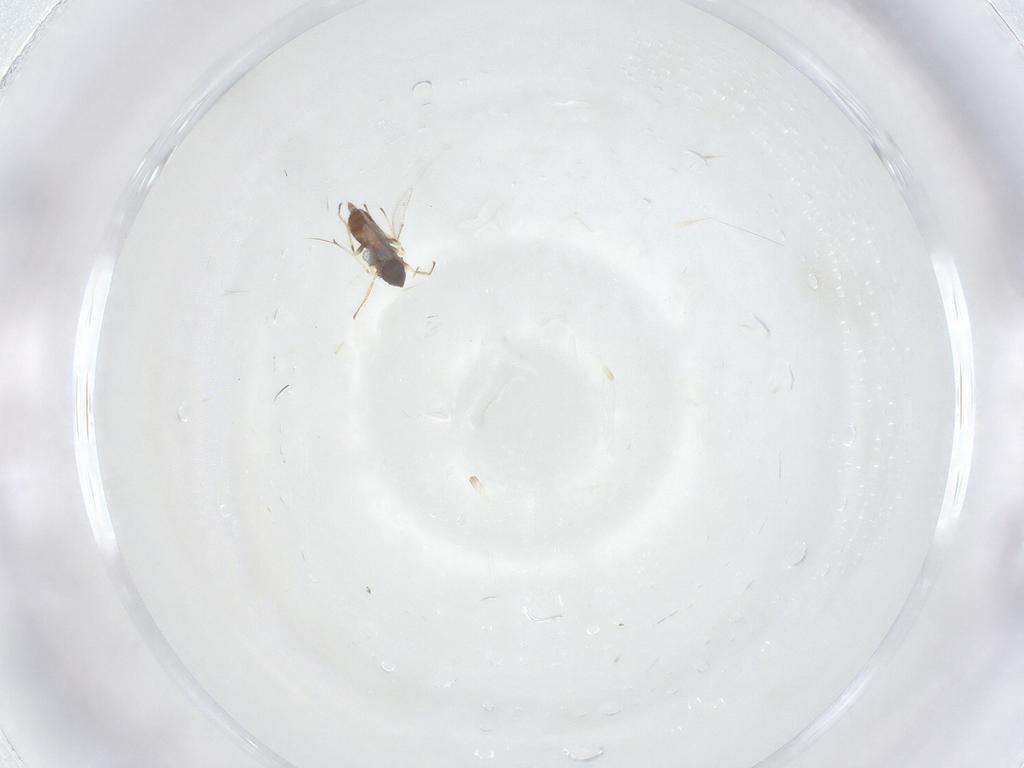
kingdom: Animalia
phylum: Arthropoda
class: Insecta
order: Diptera
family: Cecidomyiidae
